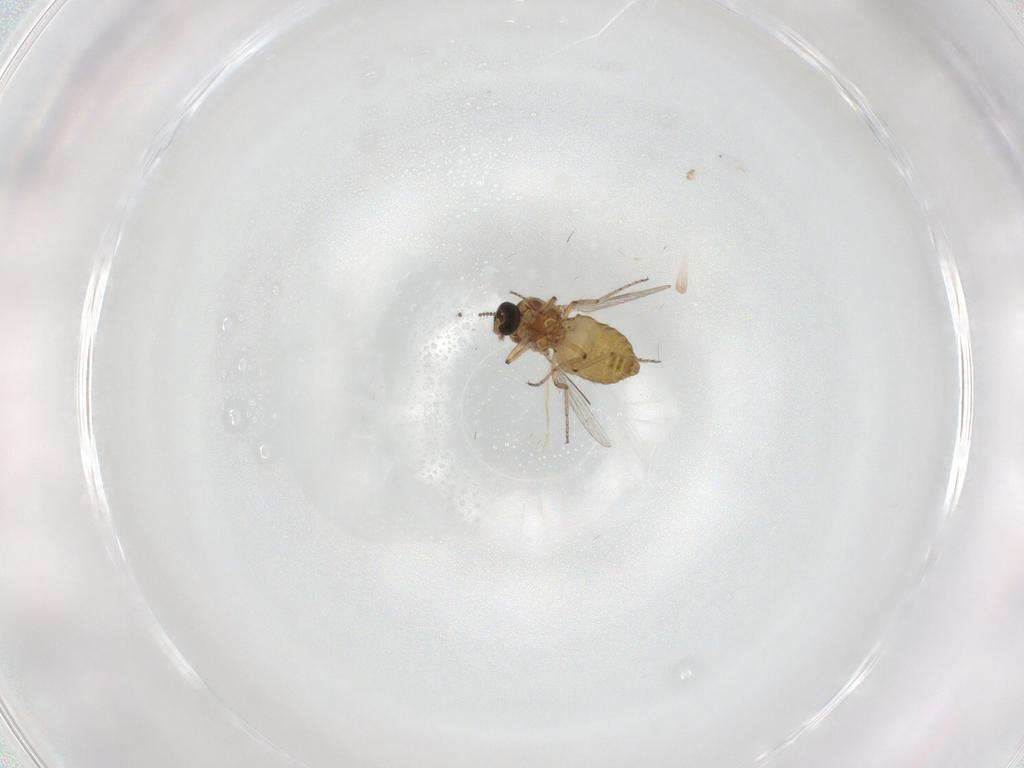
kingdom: Animalia
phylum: Arthropoda
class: Insecta
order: Diptera
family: Ceratopogonidae
